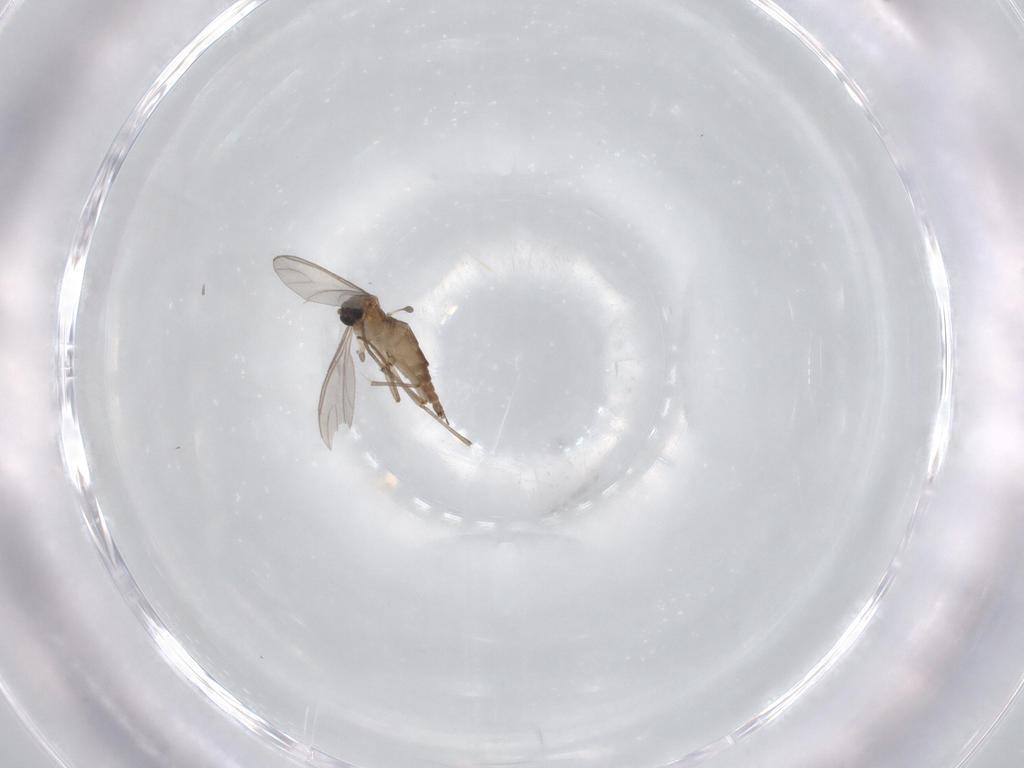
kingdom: Animalia
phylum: Arthropoda
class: Insecta
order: Diptera
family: Sciaridae
